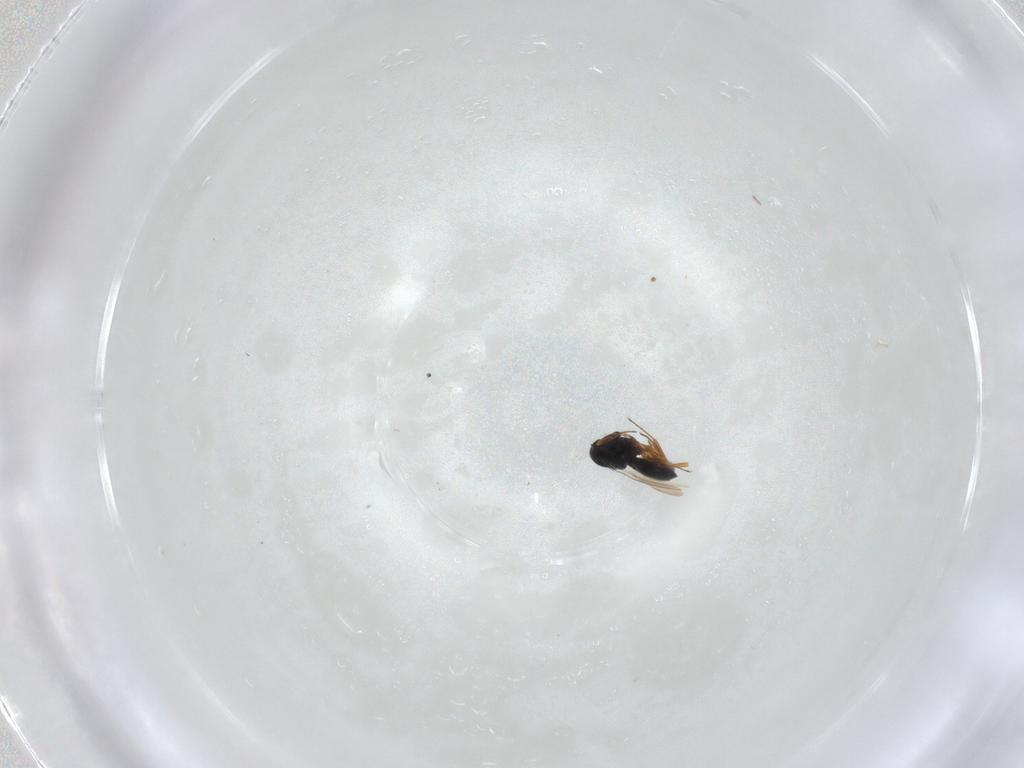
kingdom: Animalia
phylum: Arthropoda
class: Insecta
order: Hymenoptera
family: Scelionidae
